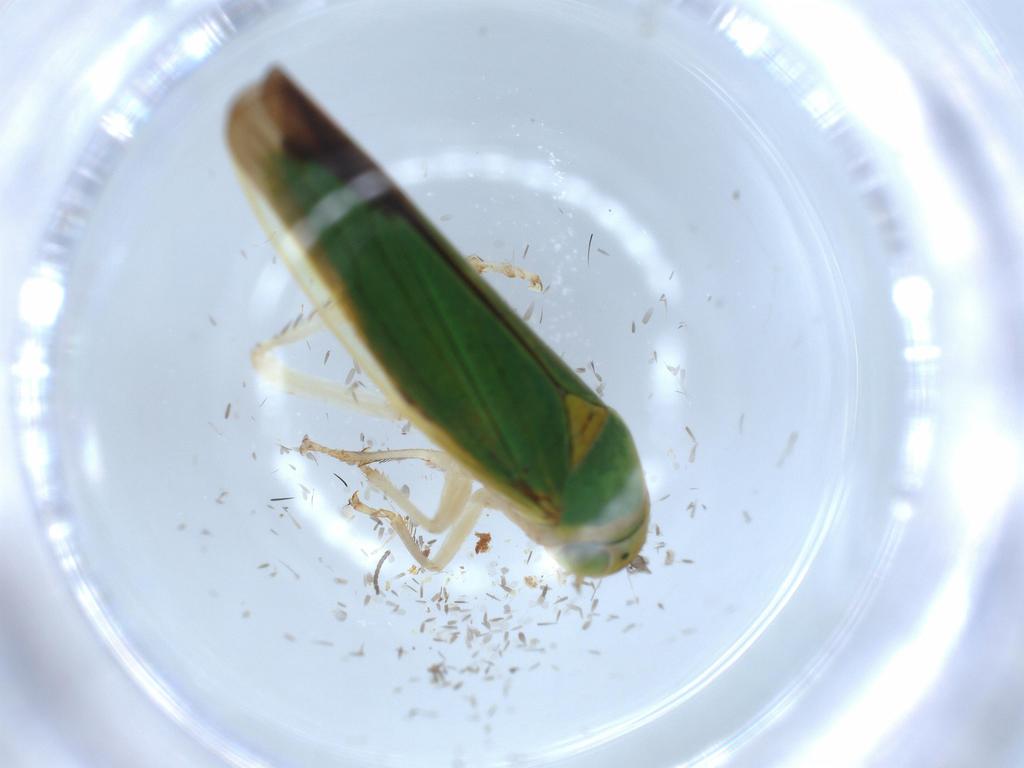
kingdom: Animalia
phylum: Arthropoda
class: Insecta
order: Hemiptera
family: Cicadellidae
